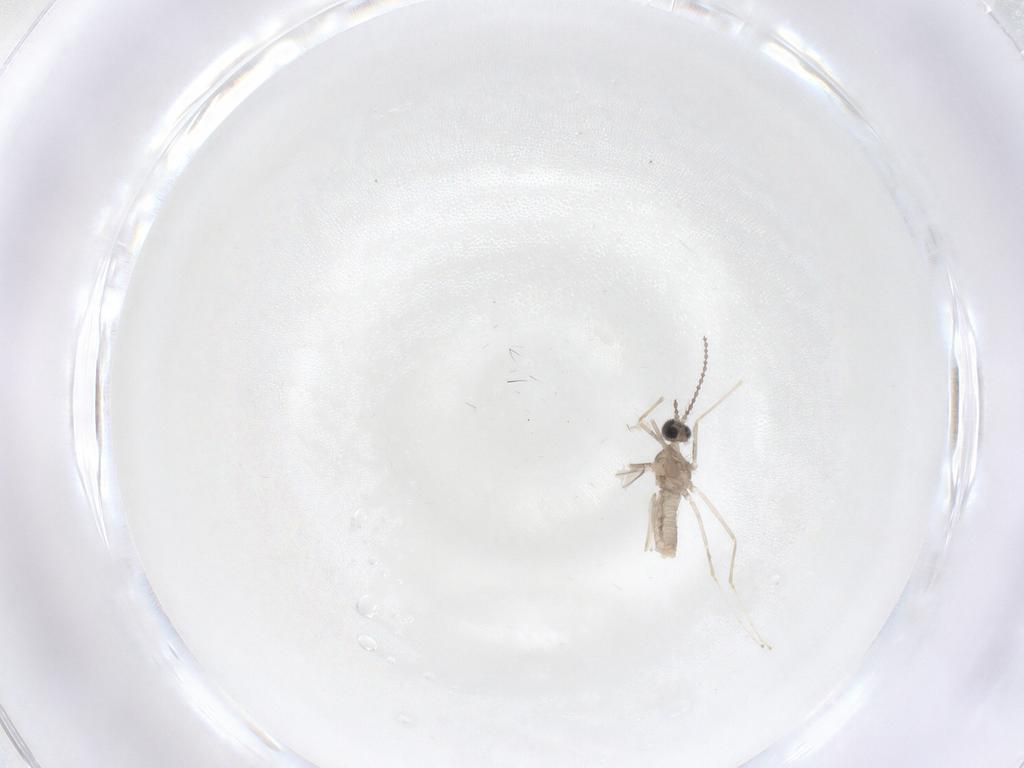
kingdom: Animalia
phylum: Arthropoda
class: Insecta
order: Diptera
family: Cecidomyiidae
